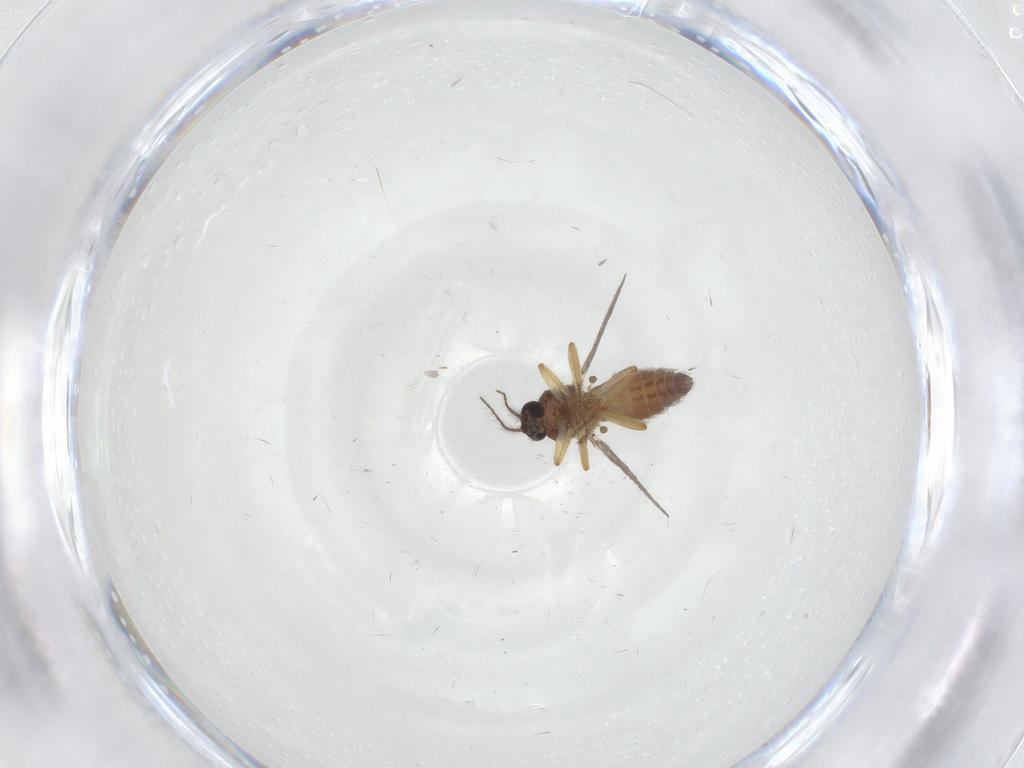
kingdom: Animalia
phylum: Arthropoda
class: Insecta
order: Diptera
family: Ceratopogonidae
